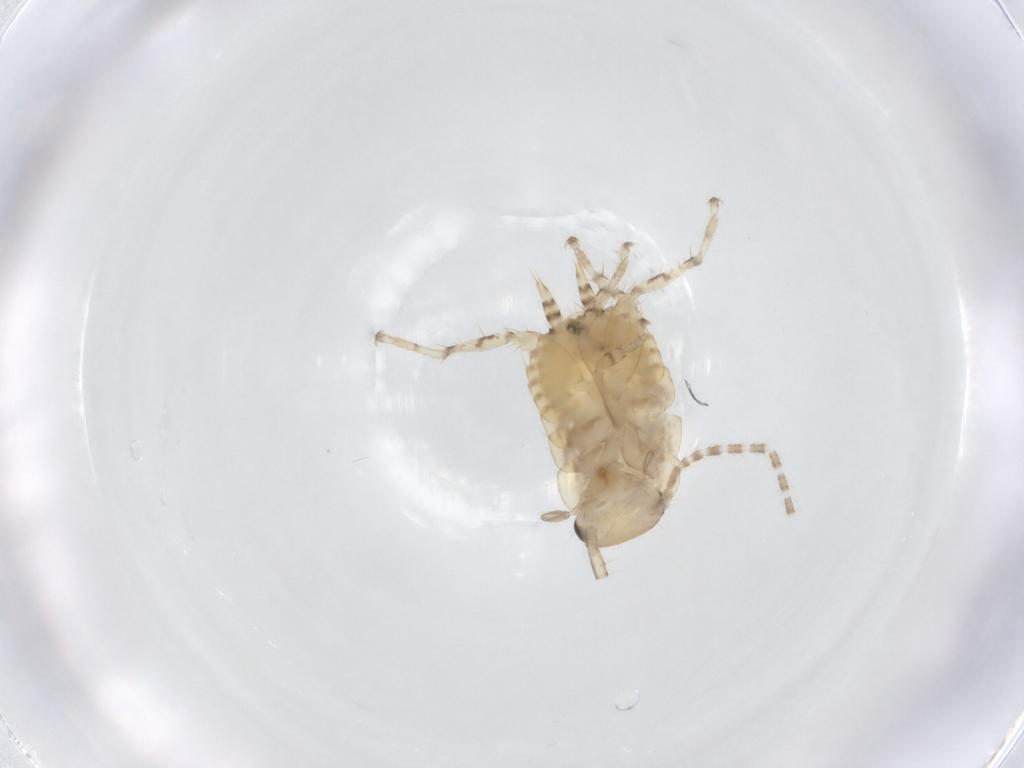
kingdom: Animalia
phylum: Arthropoda
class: Insecta
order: Blattodea
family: Ectobiidae
